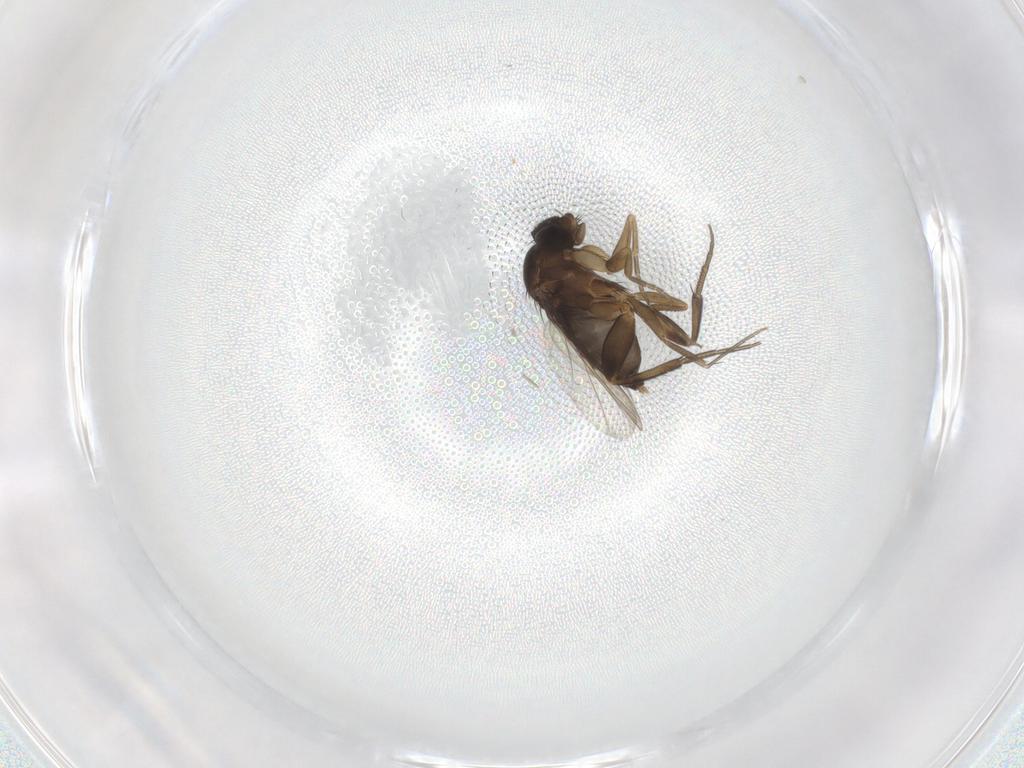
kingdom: Animalia
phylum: Arthropoda
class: Insecta
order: Diptera
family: Phoridae
